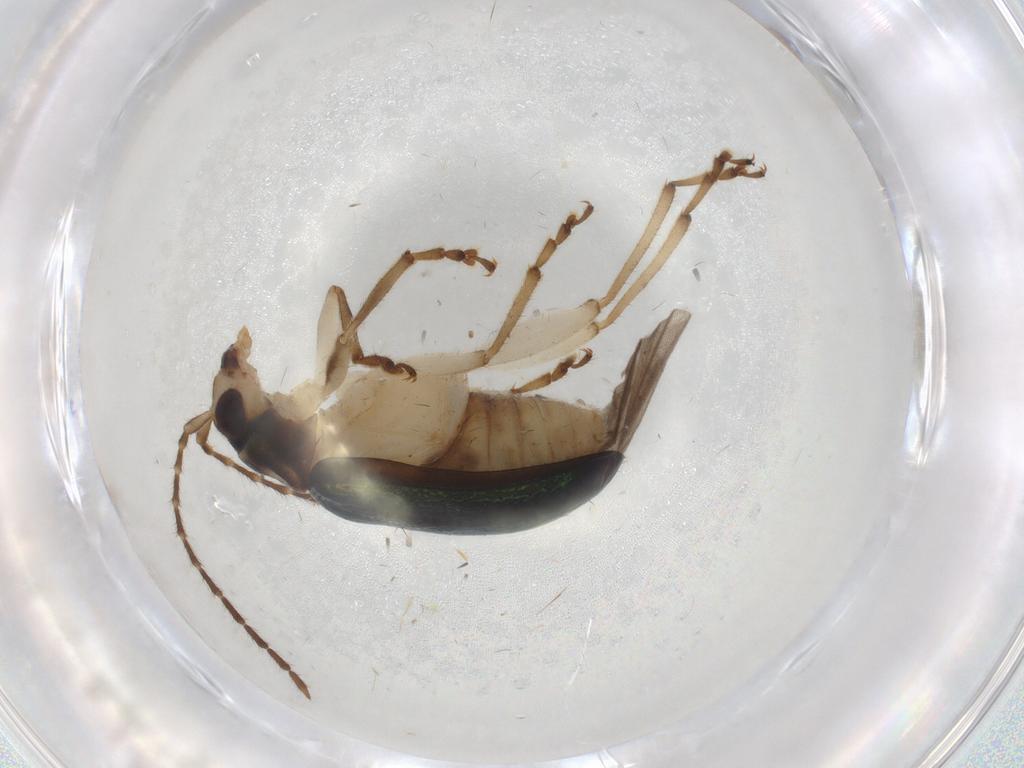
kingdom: Animalia
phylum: Arthropoda
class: Insecta
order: Coleoptera
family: Chrysomelidae
